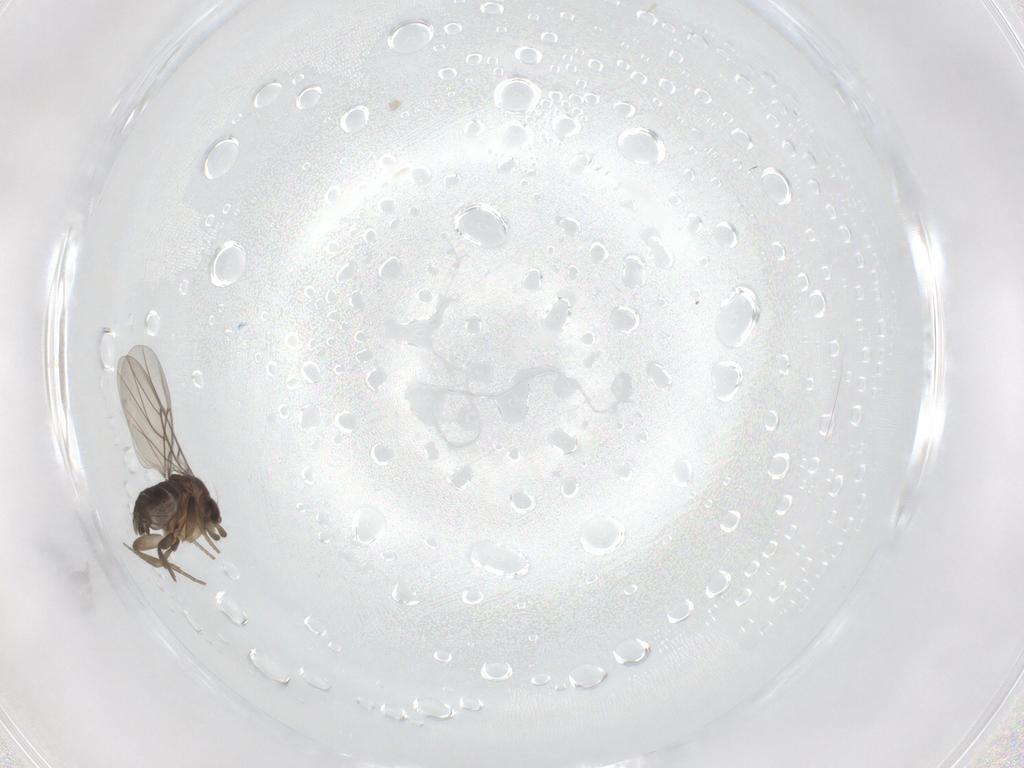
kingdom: Animalia
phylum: Arthropoda
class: Insecta
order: Diptera
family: Phoridae
